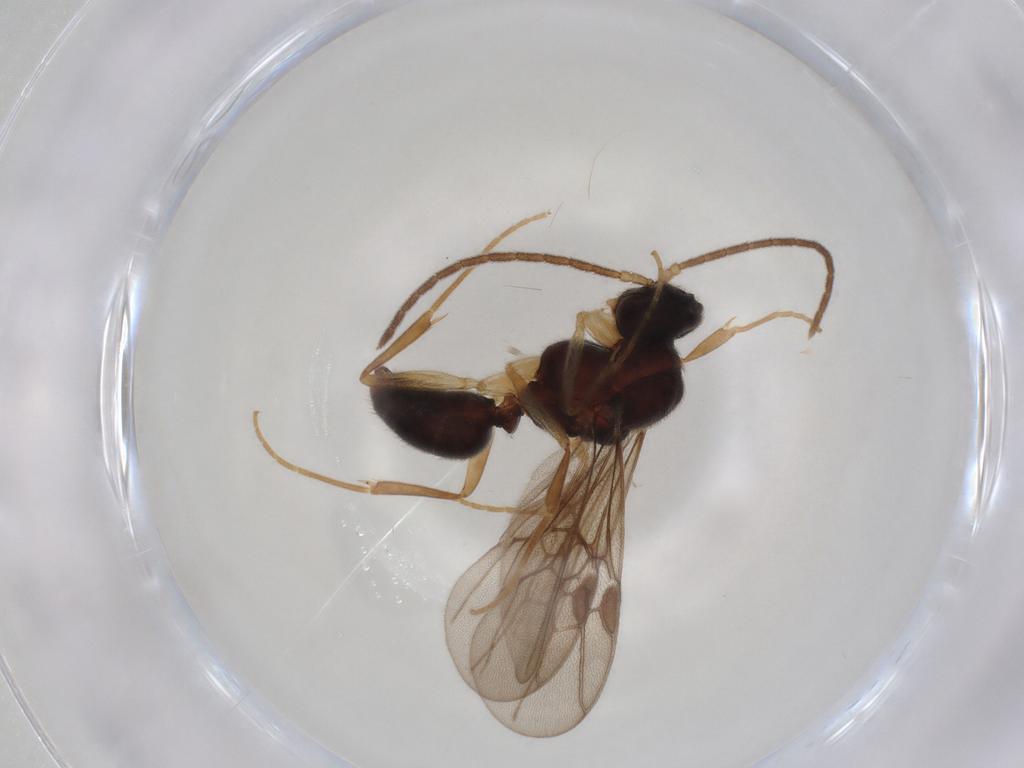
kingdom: Animalia
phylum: Arthropoda
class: Insecta
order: Hymenoptera
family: Formicidae
